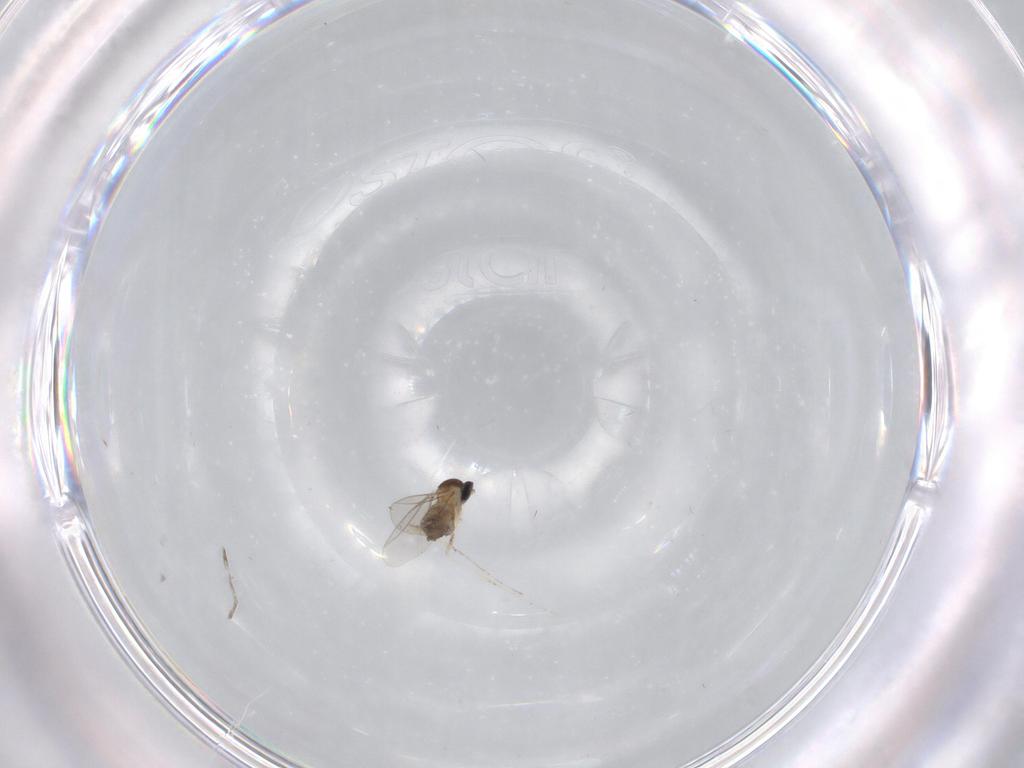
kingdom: Animalia
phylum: Arthropoda
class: Insecta
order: Diptera
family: Cecidomyiidae
